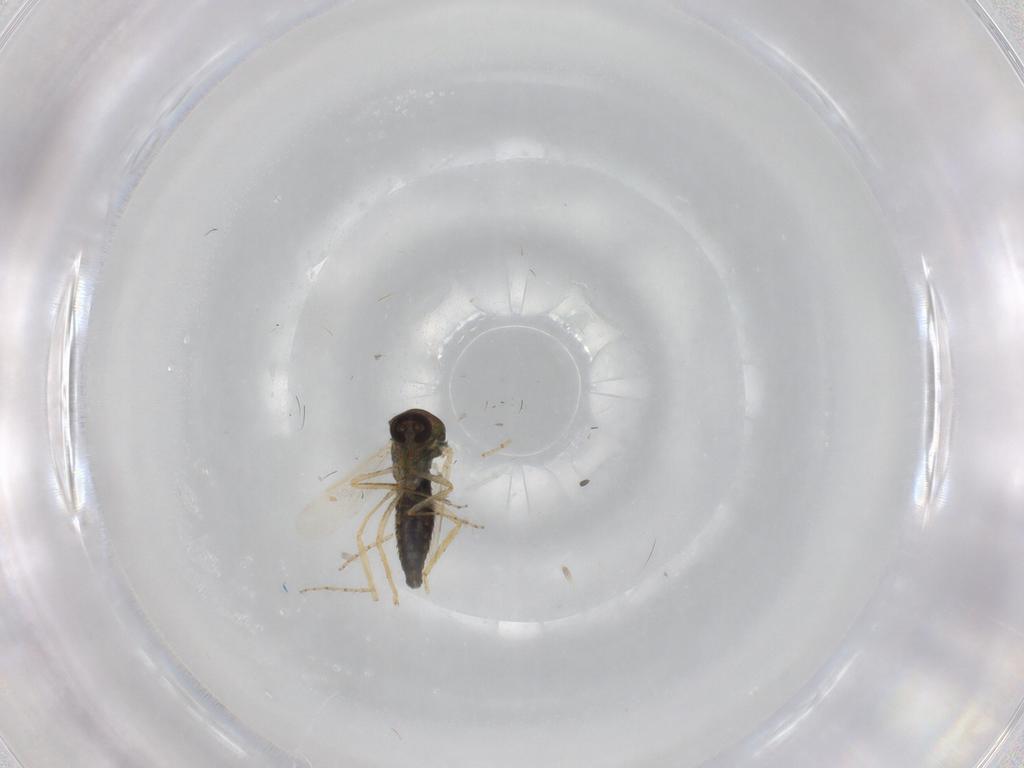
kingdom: Animalia
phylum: Arthropoda
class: Insecta
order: Diptera
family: Ceratopogonidae
